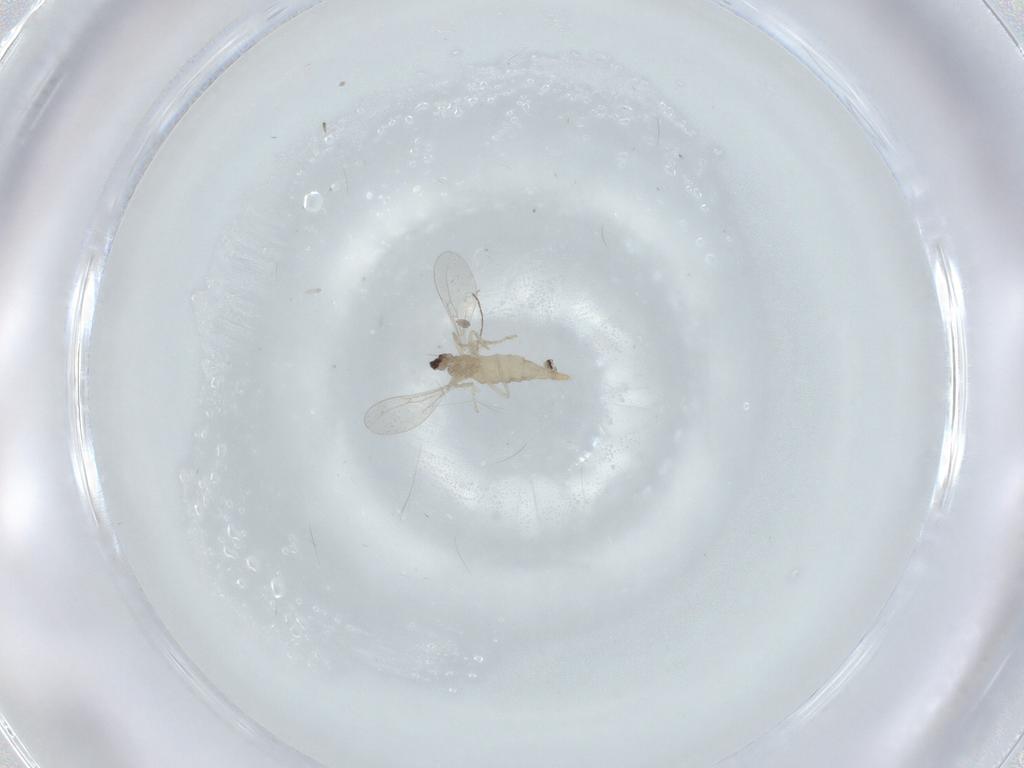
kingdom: Animalia
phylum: Arthropoda
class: Insecta
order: Diptera
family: Cecidomyiidae
